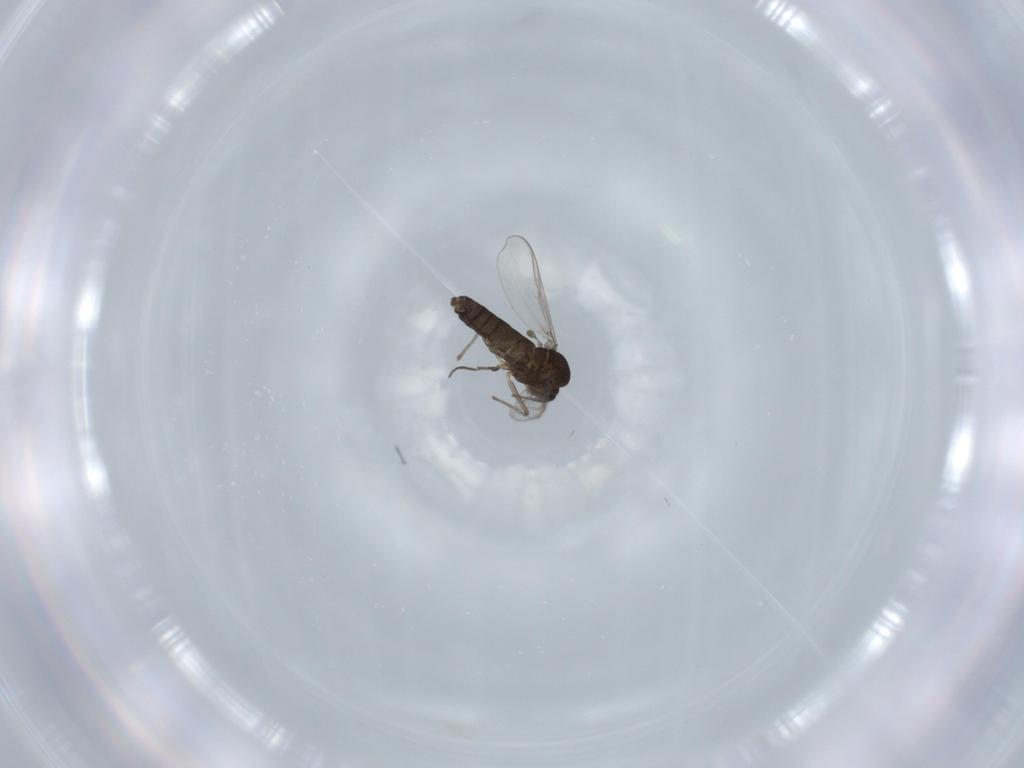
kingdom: Animalia
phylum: Arthropoda
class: Insecta
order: Diptera
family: Chironomidae
